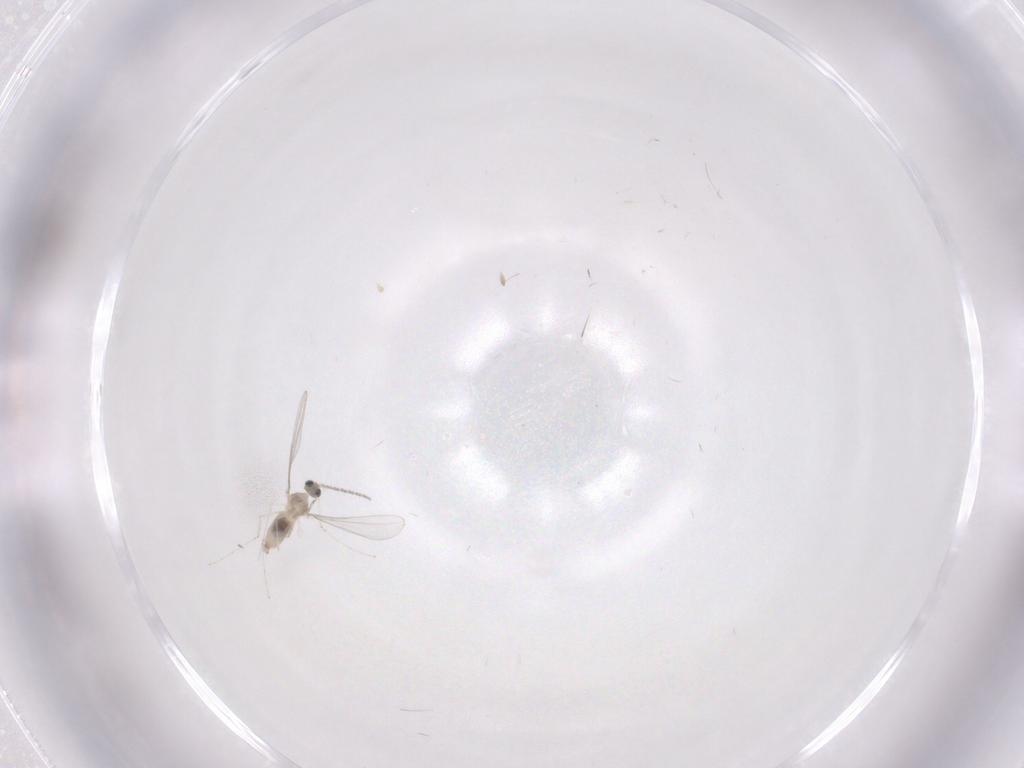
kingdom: Animalia
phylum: Arthropoda
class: Insecta
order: Diptera
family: Cecidomyiidae
